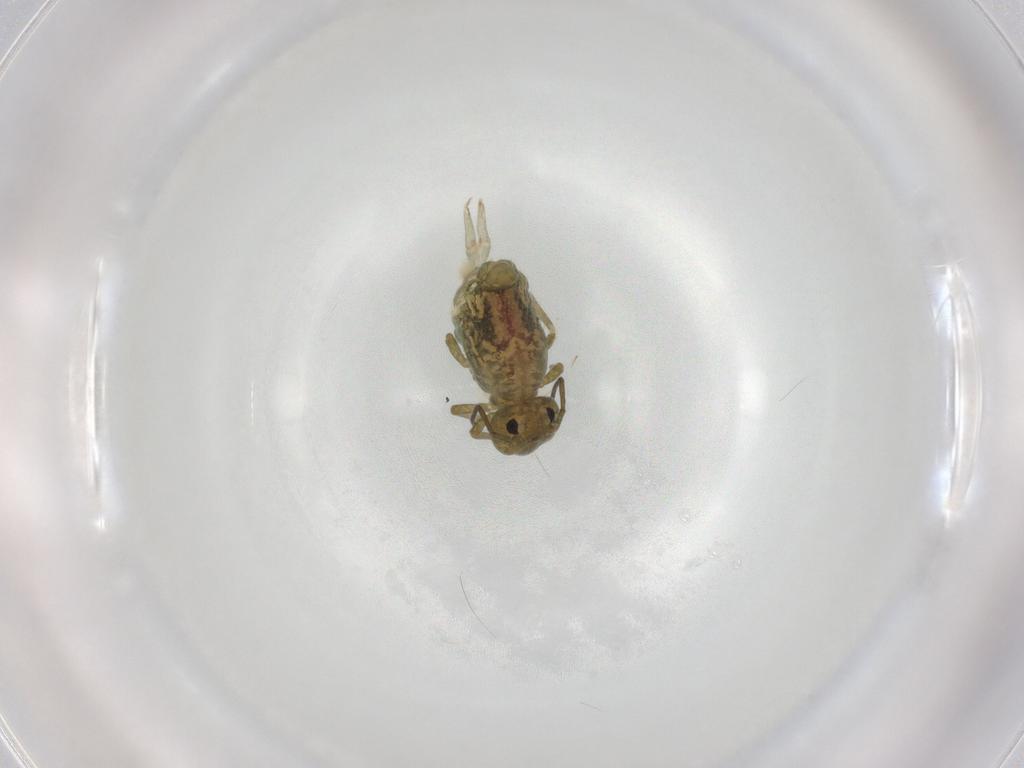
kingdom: Animalia
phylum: Arthropoda
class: Collembola
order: Symphypleona
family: Sminthuridae
